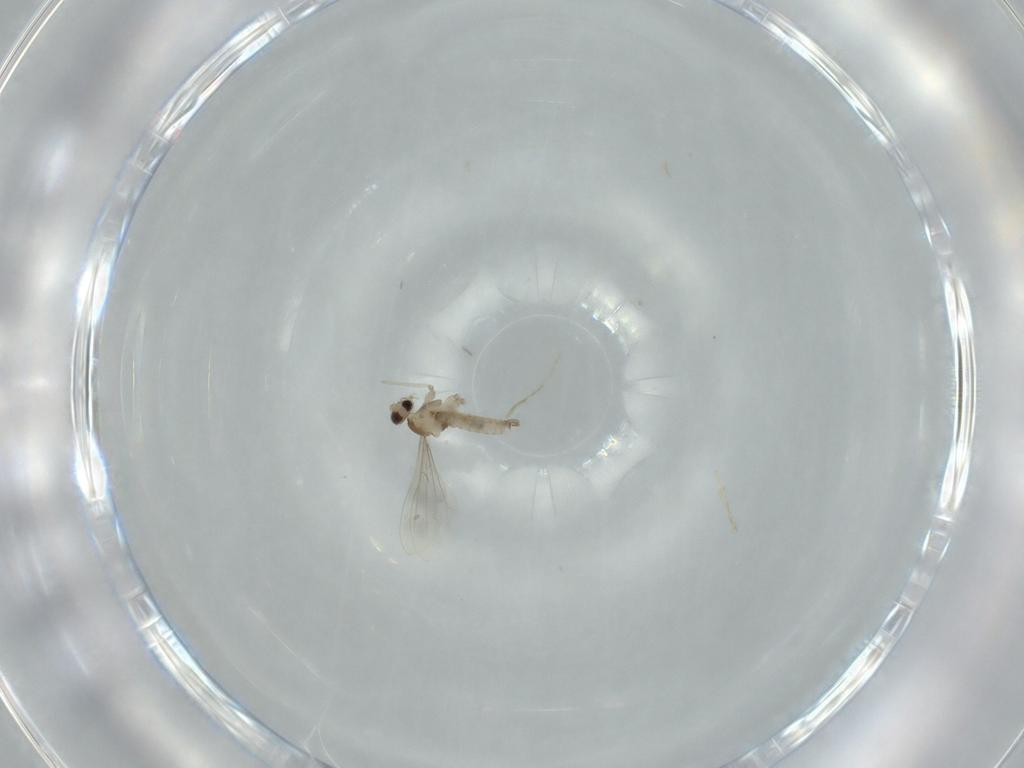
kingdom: Animalia
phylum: Arthropoda
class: Insecta
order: Diptera
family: Cecidomyiidae
